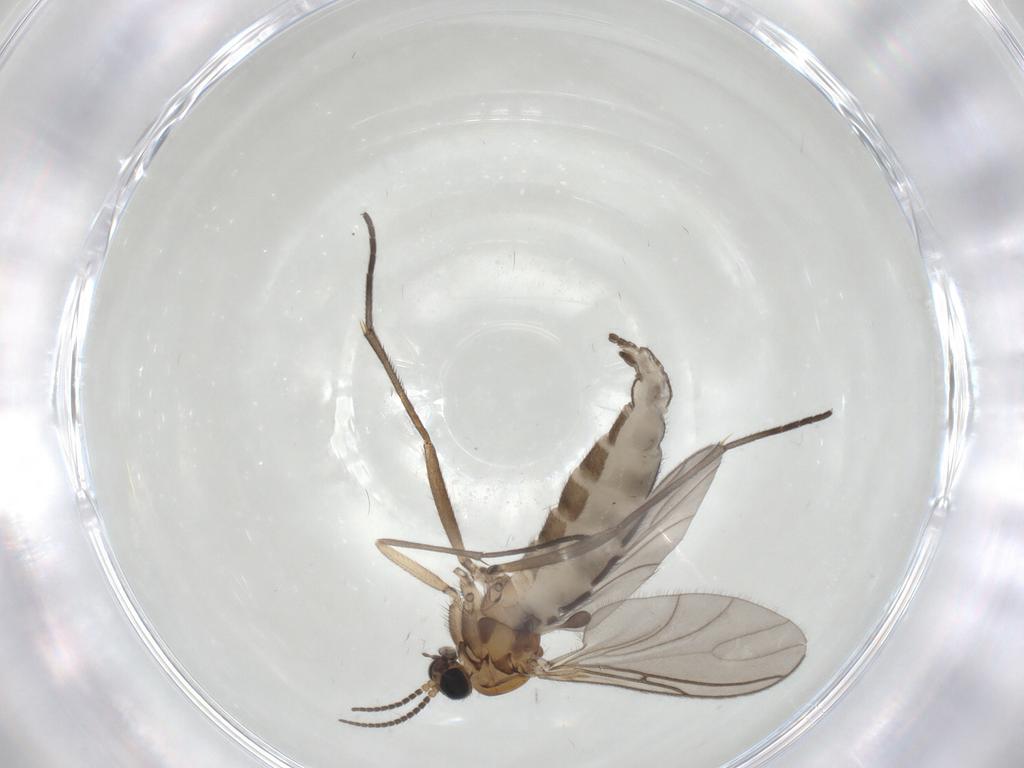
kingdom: Animalia
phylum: Arthropoda
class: Insecta
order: Diptera
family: Sciaridae
